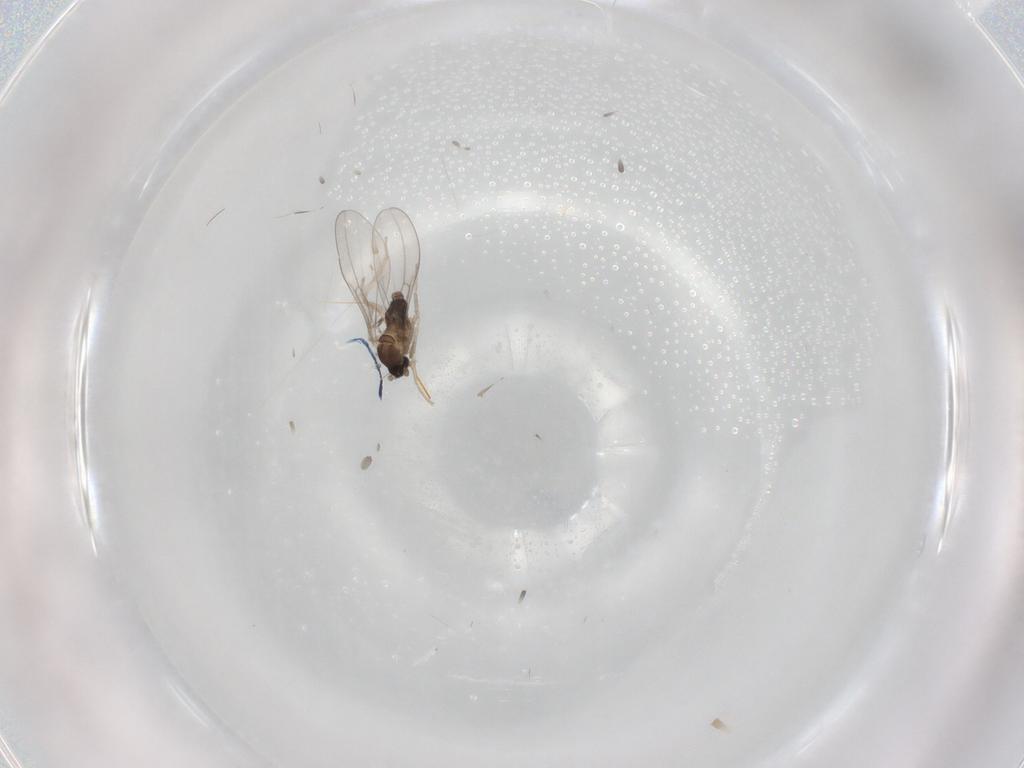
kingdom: Animalia
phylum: Arthropoda
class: Insecta
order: Diptera
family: Cecidomyiidae
